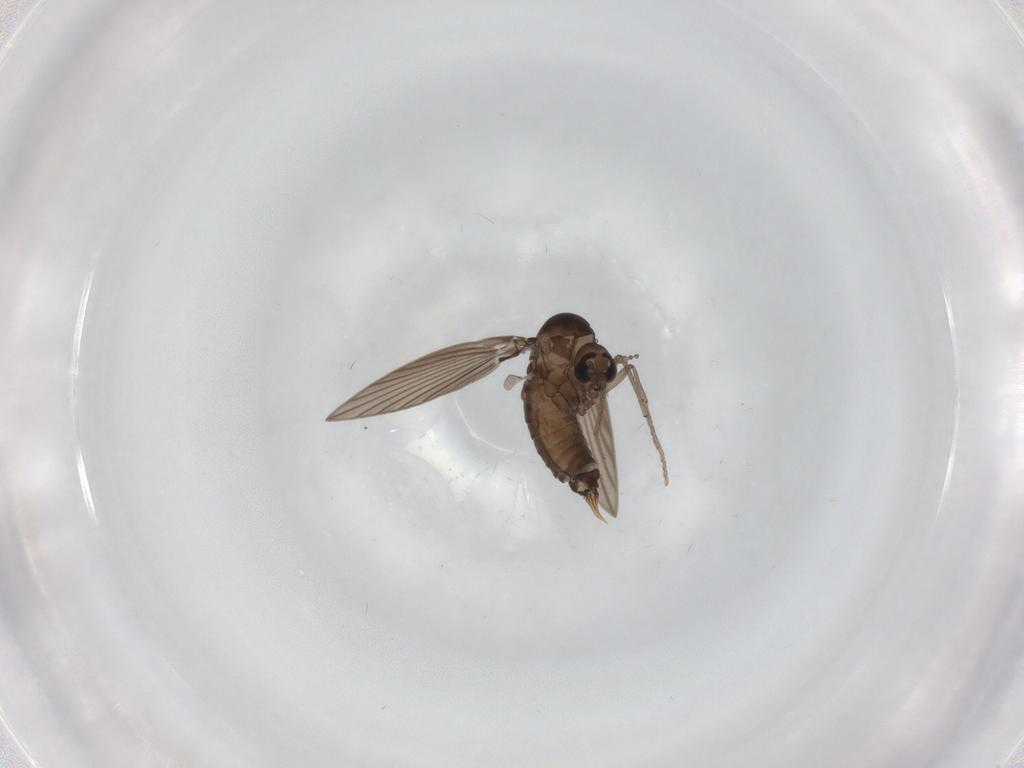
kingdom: Animalia
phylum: Arthropoda
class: Insecta
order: Diptera
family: Psychodidae
